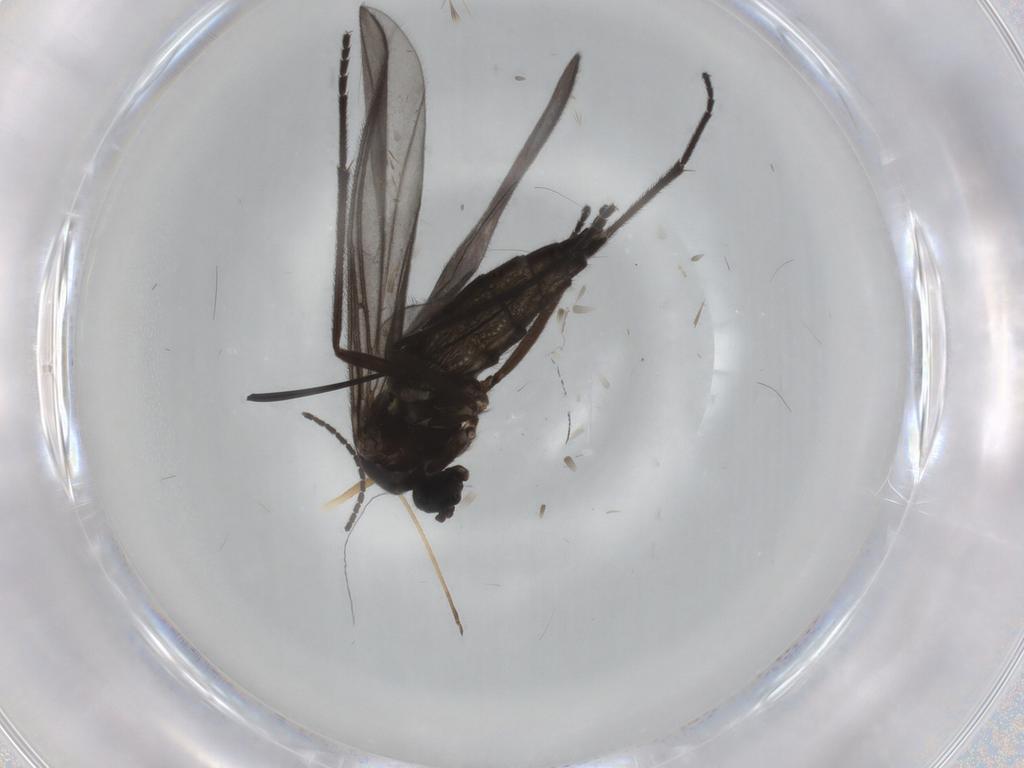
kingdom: Animalia
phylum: Arthropoda
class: Insecta
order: Diptera
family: Sciaridae
